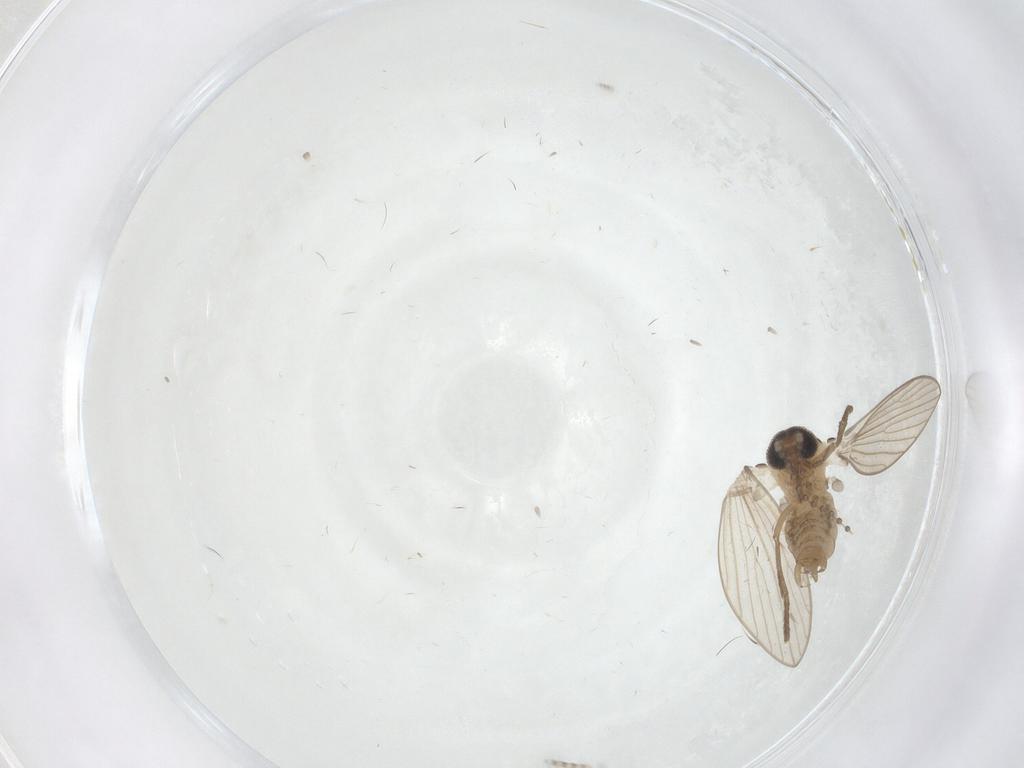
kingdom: Animalia
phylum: Arthropoda
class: Insecta
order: Diptera
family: Psychodidae
